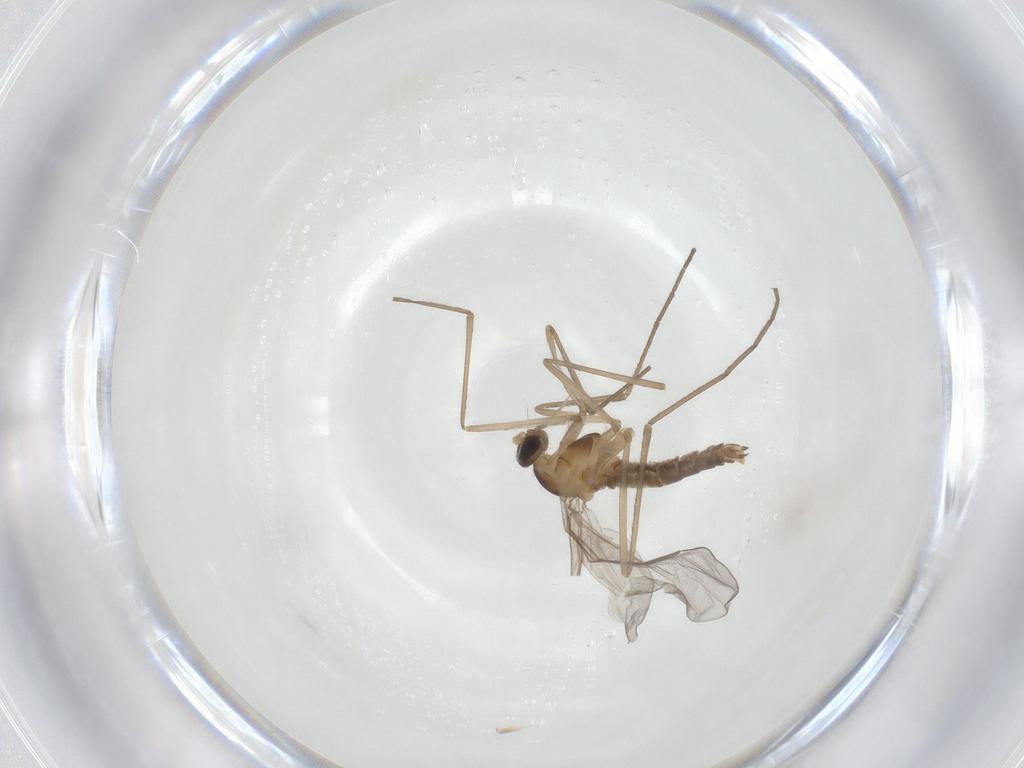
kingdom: Animalia
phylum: Arthropoda
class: Insecta
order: Diptera
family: Cecidomyiidae
